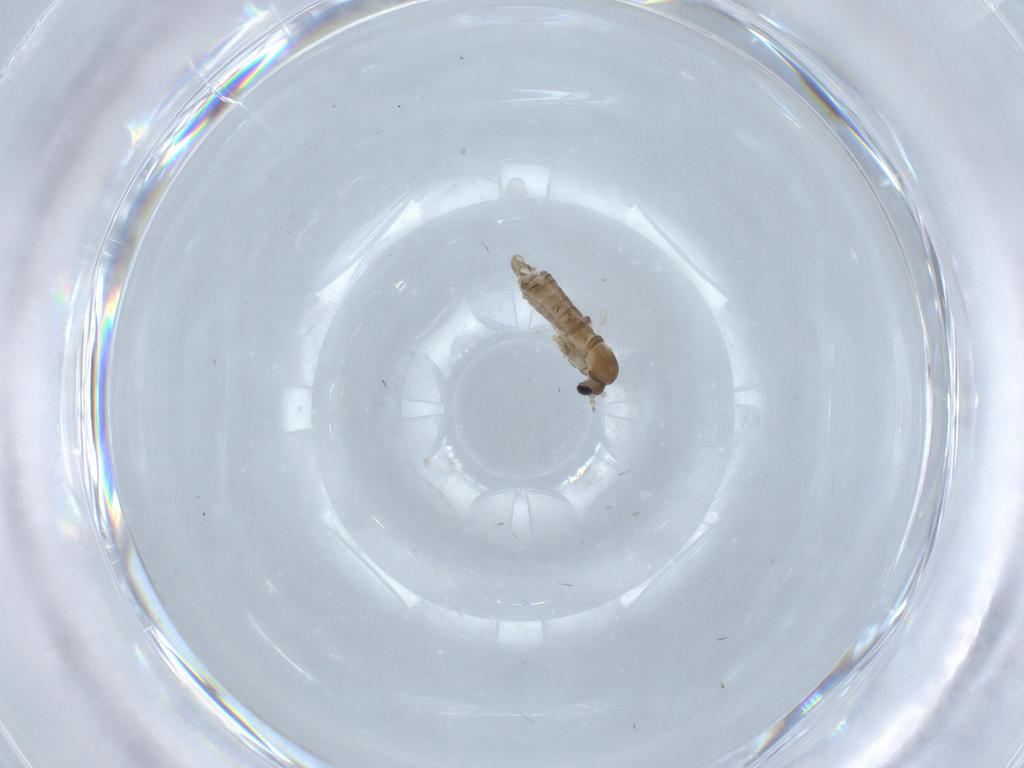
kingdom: Animalia
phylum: Arthropoda
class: Insecta
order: Diptera
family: Psychodidae
